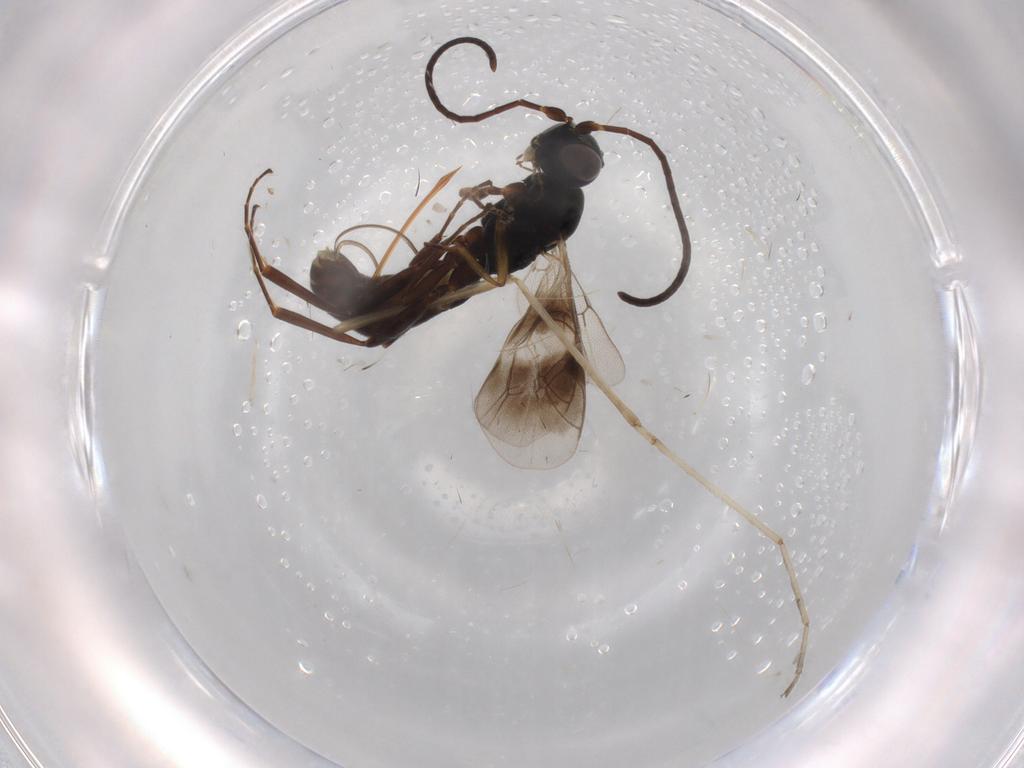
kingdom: Animalia
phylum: Arthropoda
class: Insecta
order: Hymenoptera
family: Ichneumonidae
